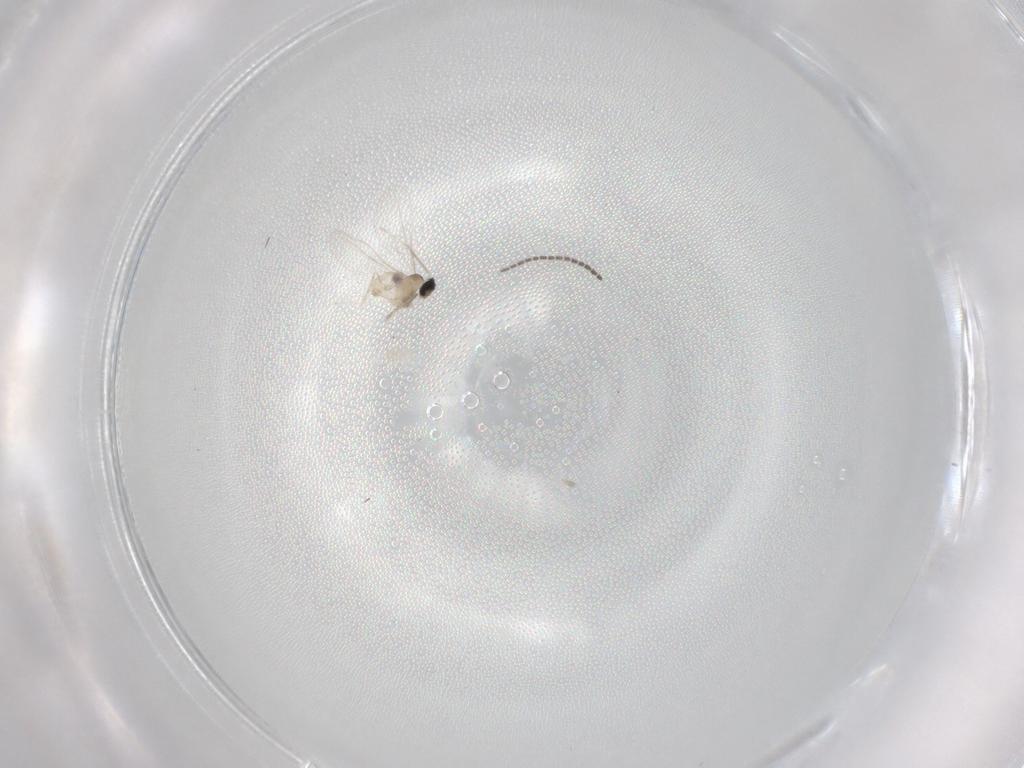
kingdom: Animalia
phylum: Arthropoda
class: Insecta
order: Diptera
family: Cecidomyiidae
